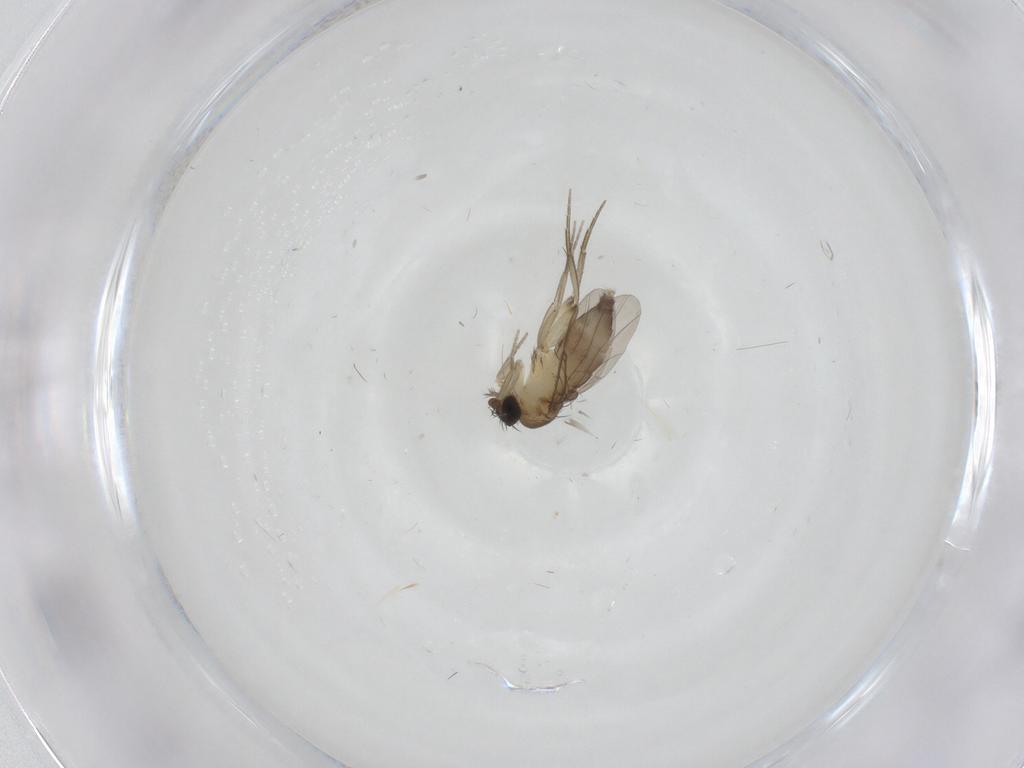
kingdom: Animalia
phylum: Arthropoda
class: Insecta
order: Diptera
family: Phoridae
